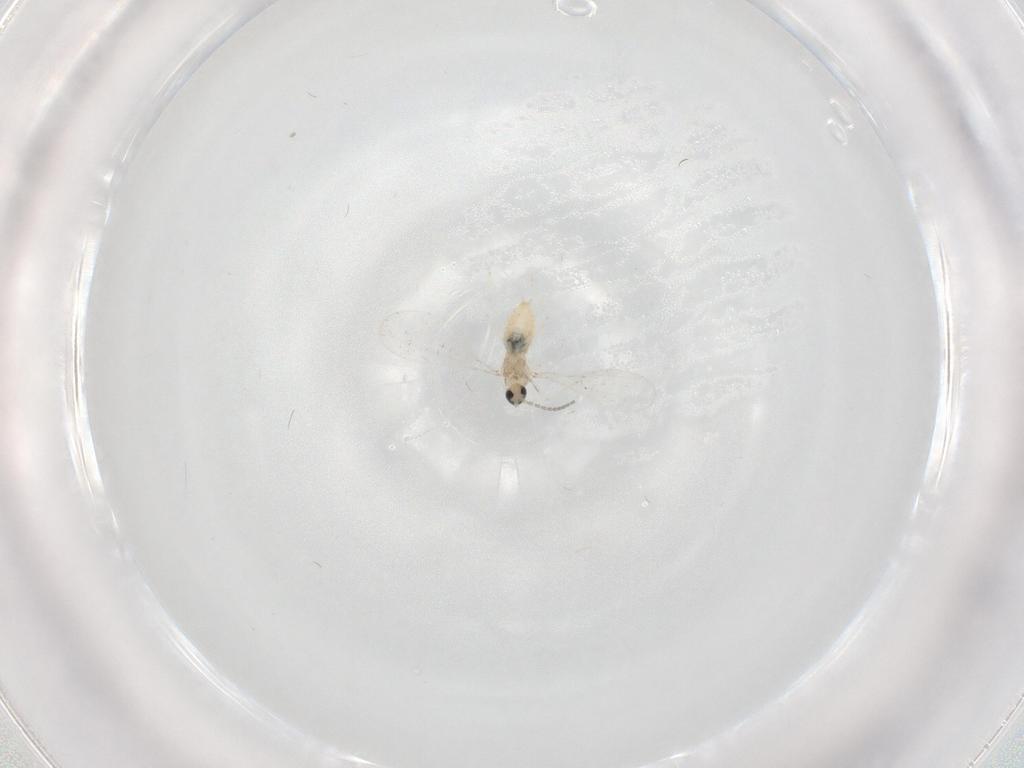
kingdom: Animalia
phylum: Arthropoda
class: Insecta
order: Diptera
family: Cecidomyiidae
